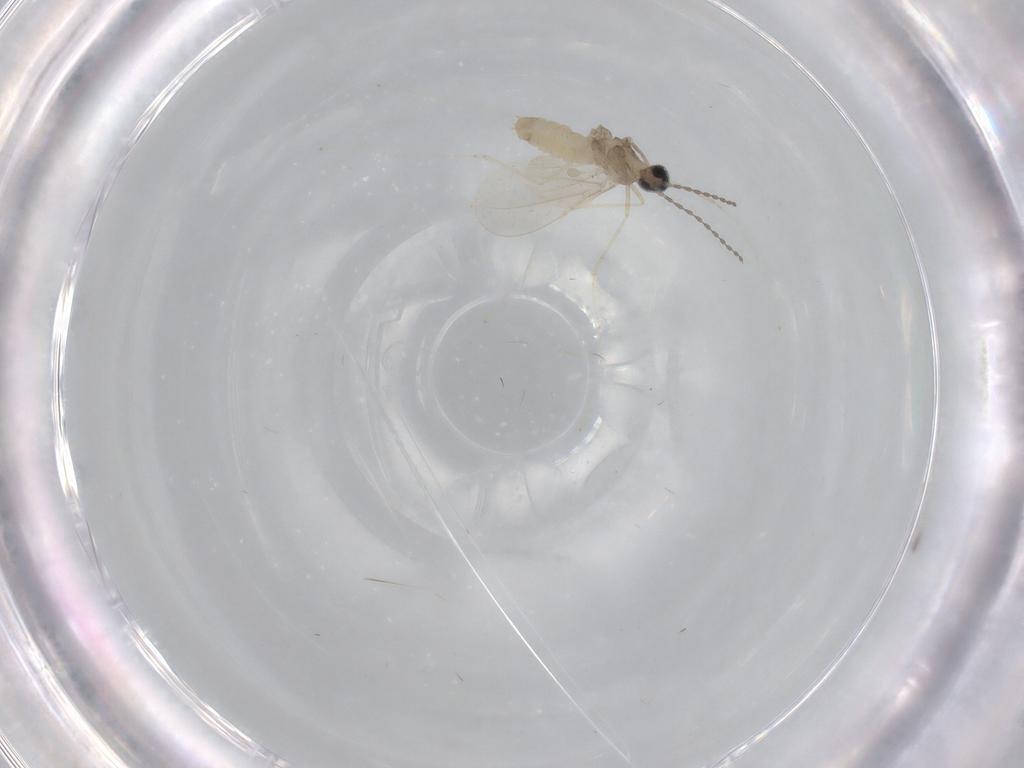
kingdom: Animalia
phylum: Arthropoda
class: Insecta
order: Diptera
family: Cecidomyiidae
